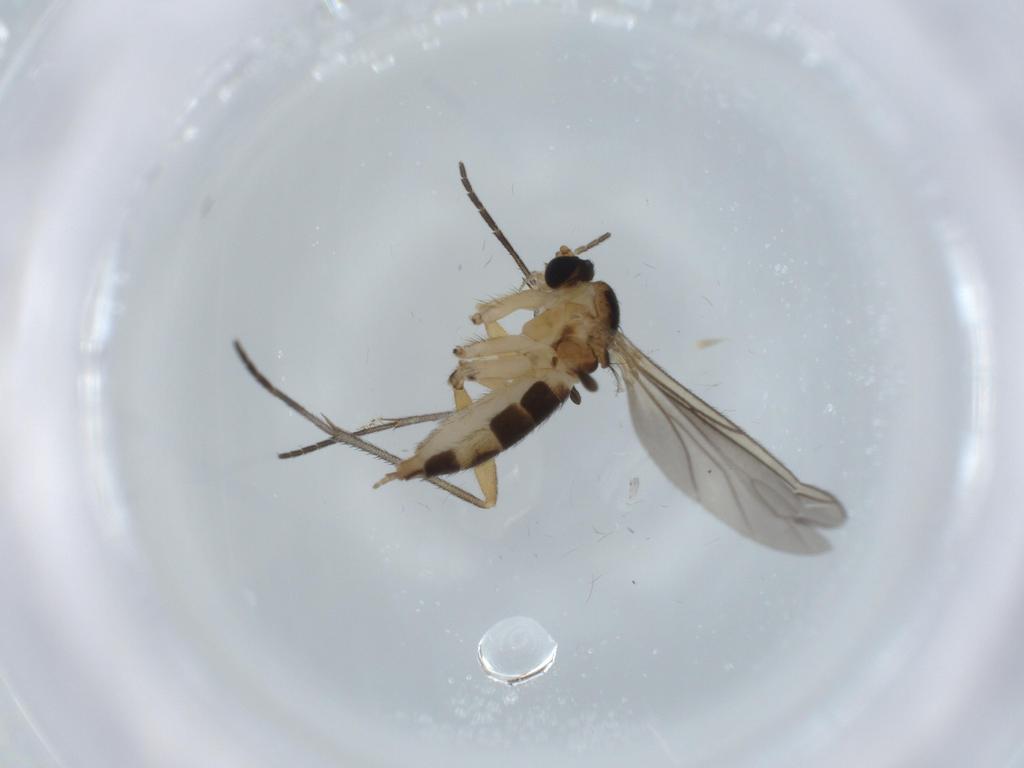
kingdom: Animalia
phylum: Arthropoda
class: Insecta
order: Diptera
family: Sciaridae
